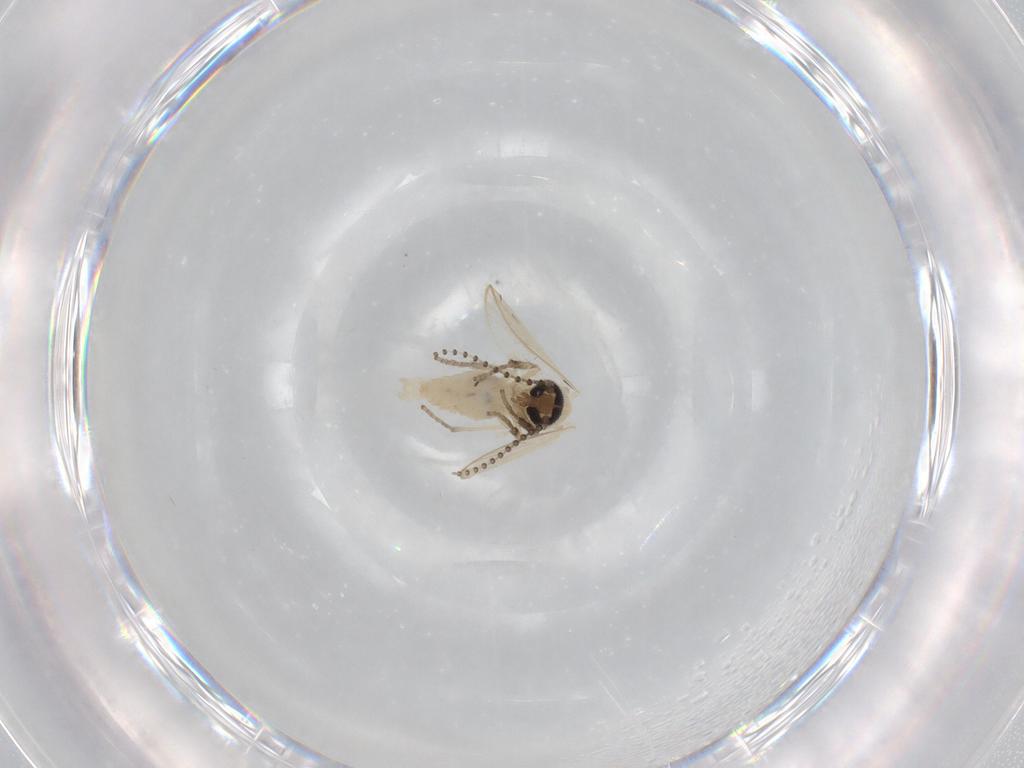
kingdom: Animalia
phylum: Arthropoda
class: Insecta
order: Diptera
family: Psychodidae
